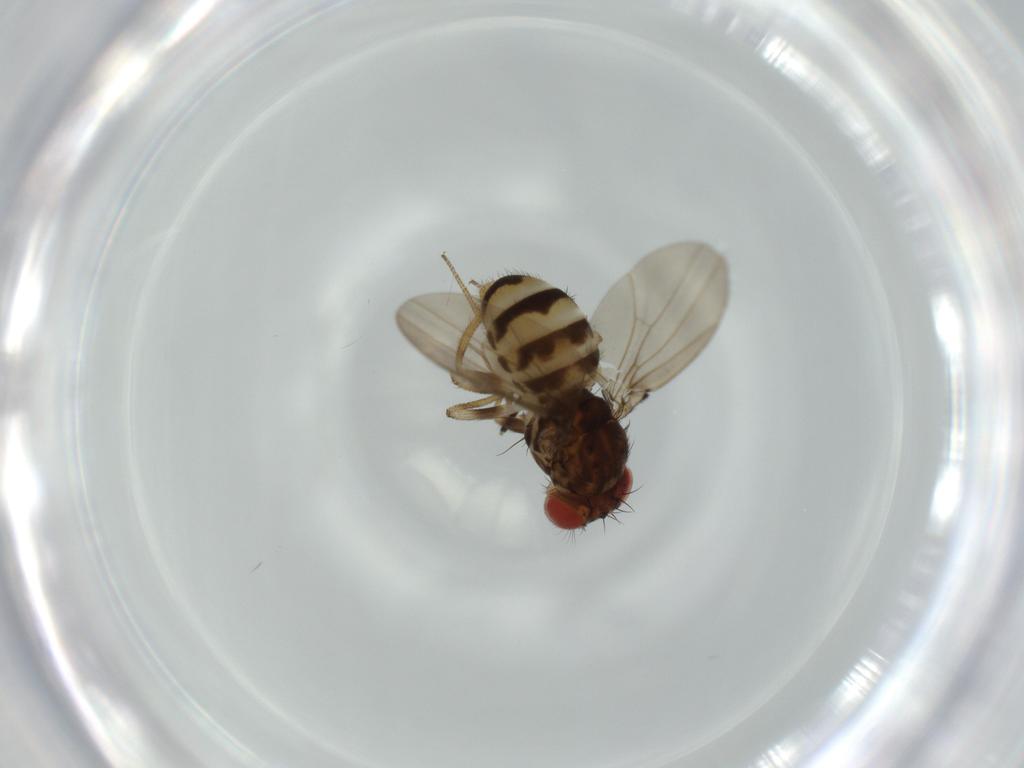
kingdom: Animalia
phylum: Arthropoda
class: Insecta
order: Diptera
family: Drosophilidae
